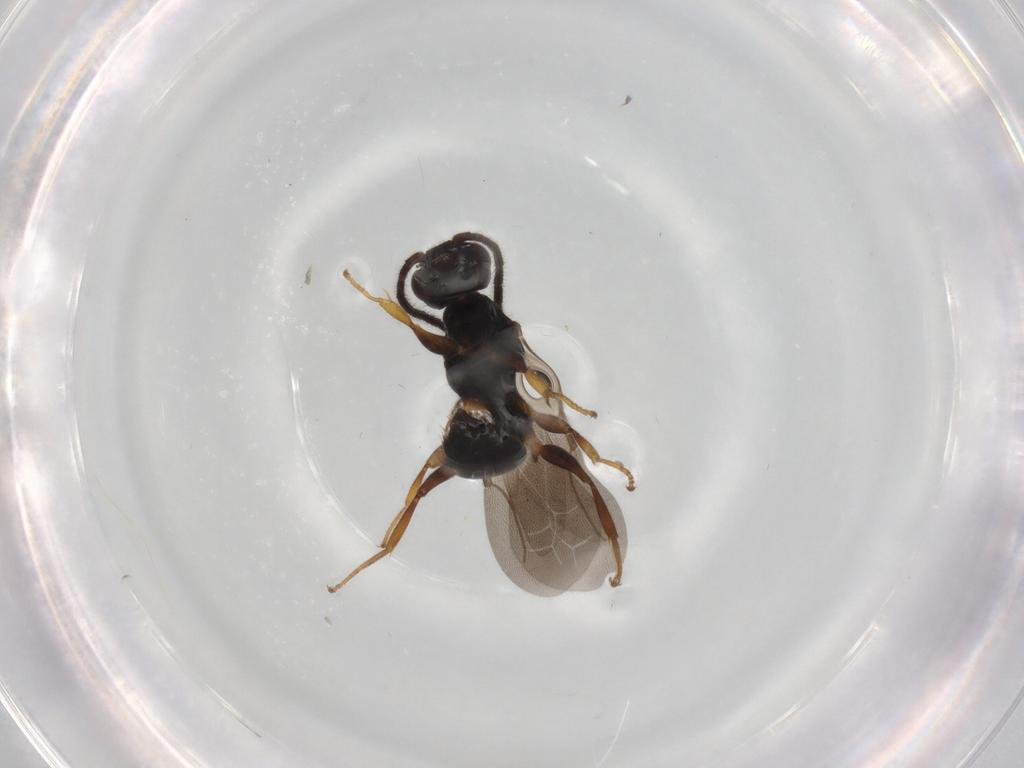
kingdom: Animalia
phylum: Arthropoda
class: Insecta
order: Hymenoptera
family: Bethylidae
